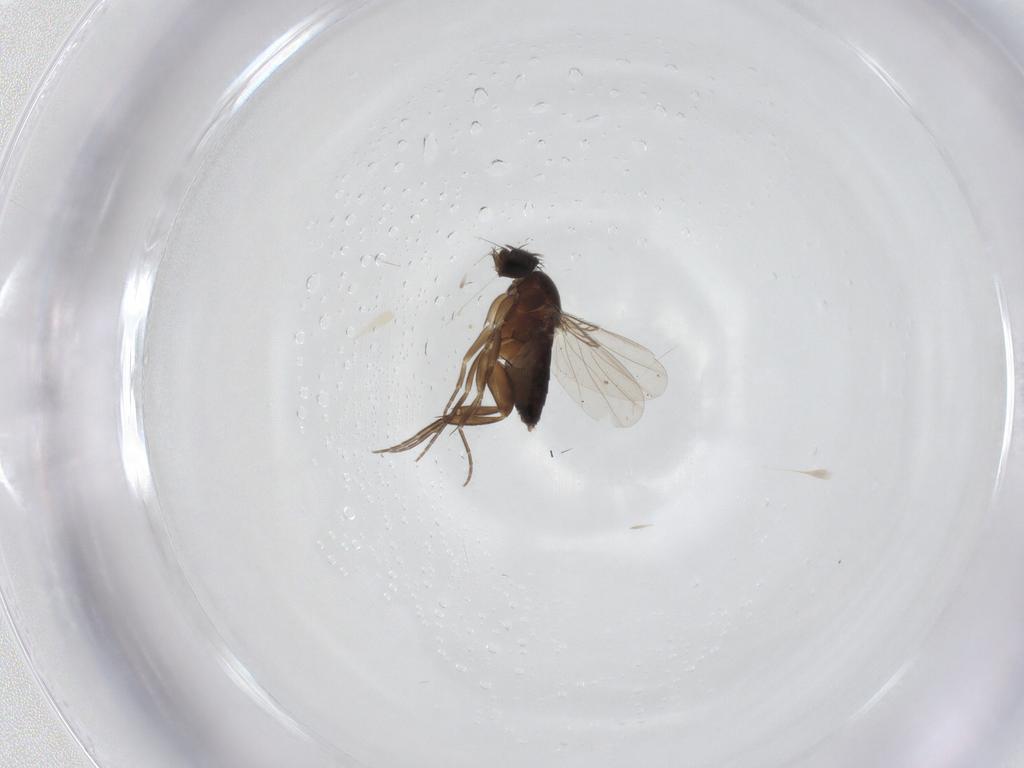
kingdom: Animalia
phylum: Arthropoda
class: Insecta
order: Diptera
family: Phoridae
